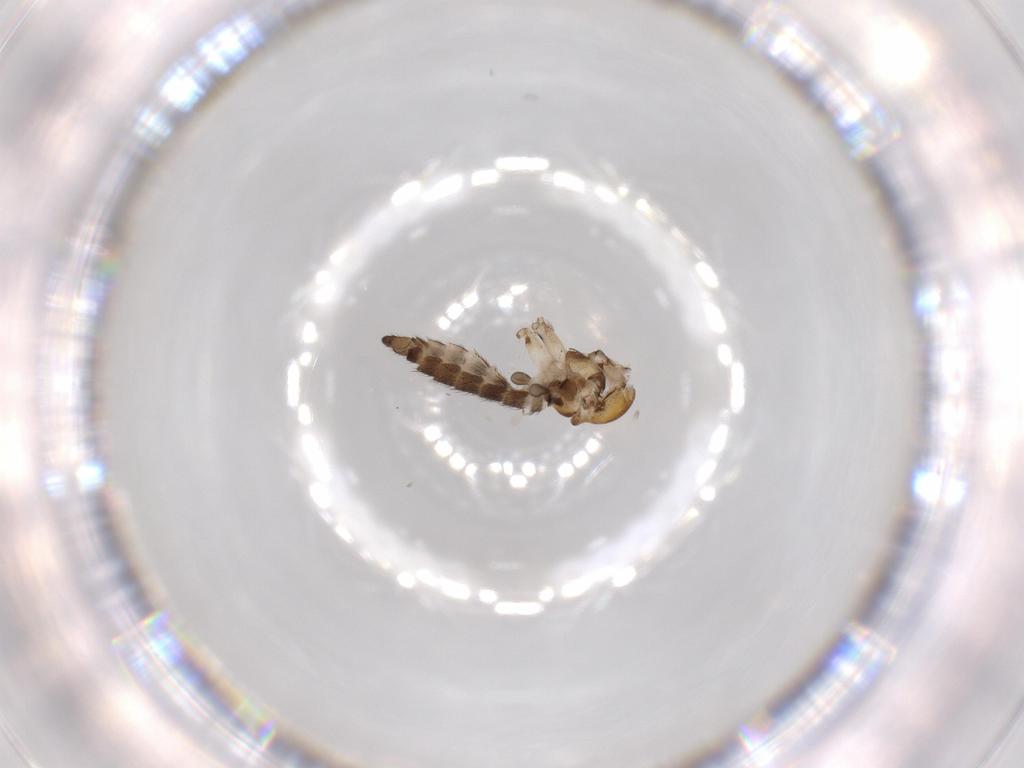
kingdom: Animalia
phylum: Arthropoda
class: Insecta
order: Diptera
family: Sciaridae
